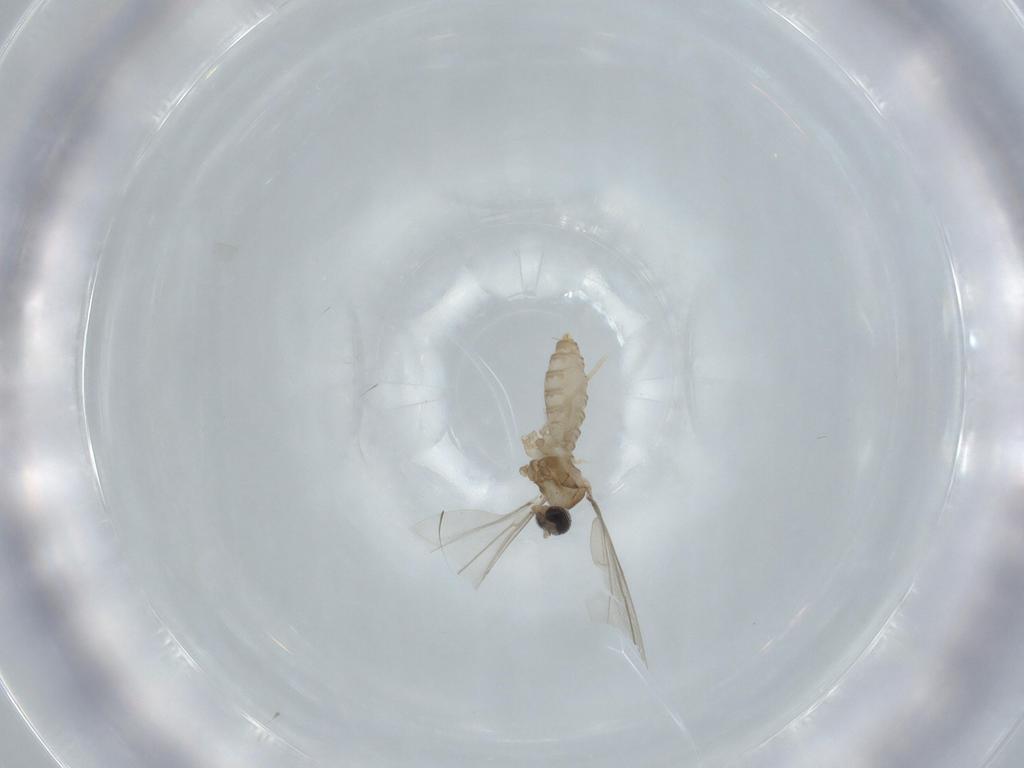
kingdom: Animalia
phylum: Arthropoda
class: Insecta
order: Diptera
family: Cecidomyiidae
